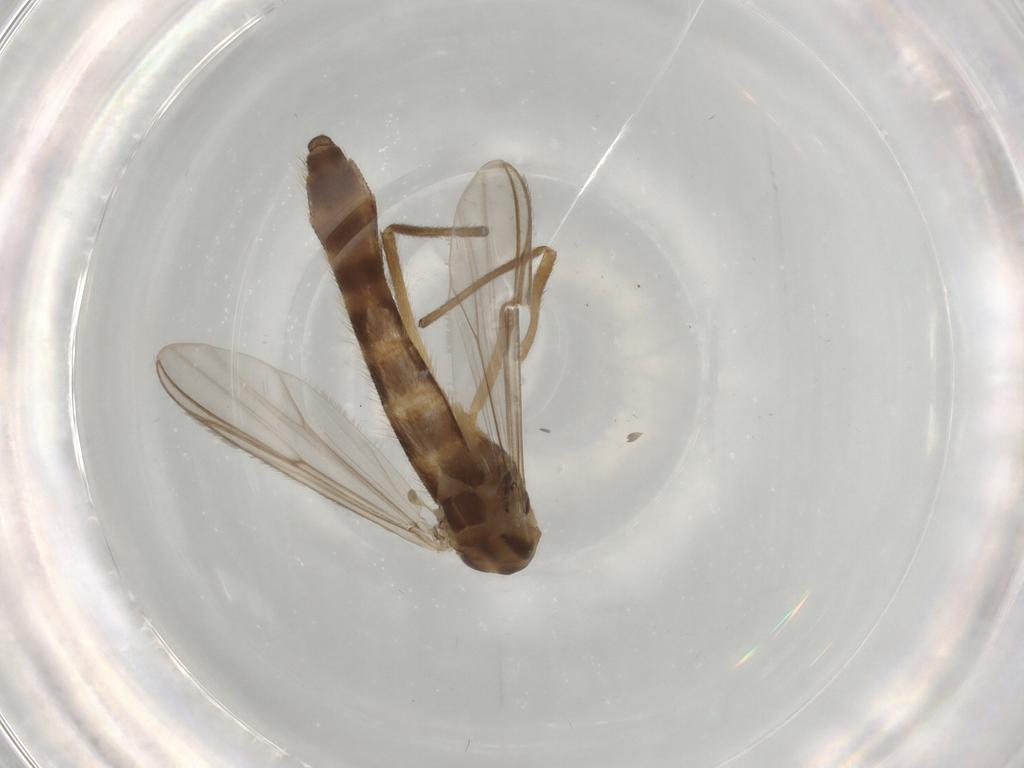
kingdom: Animalia
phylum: Arthropoda
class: Insecta
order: Diptera
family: Chironomidae
